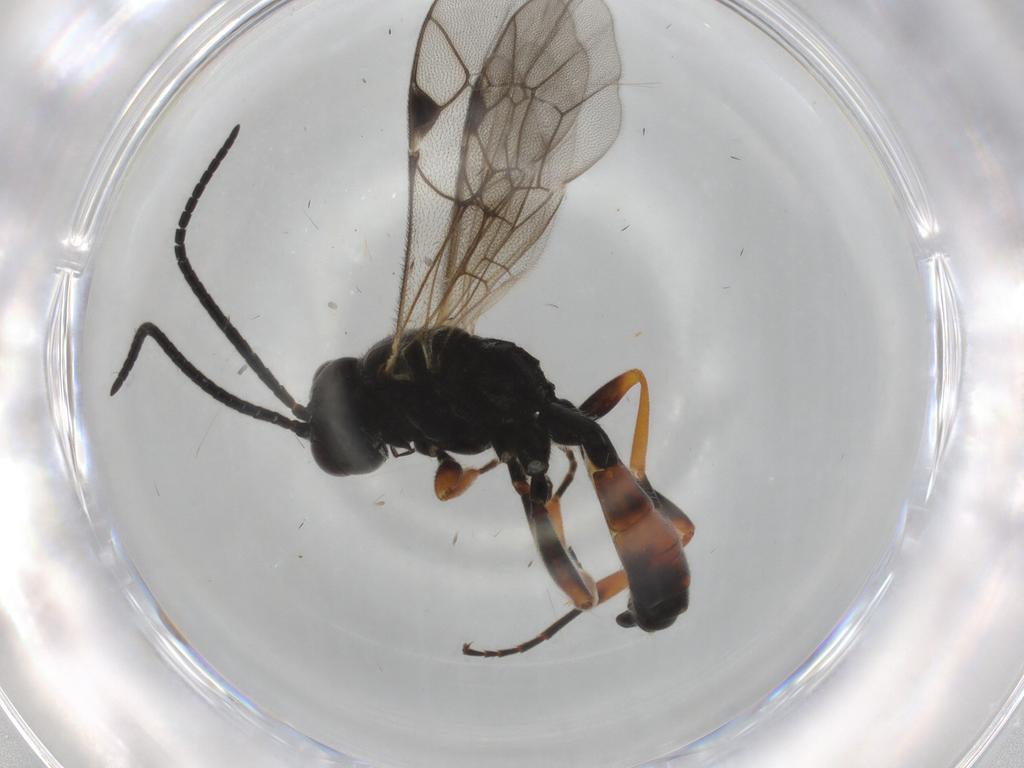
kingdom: Animalia
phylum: Arthropoda
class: Insecta
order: Hymenoptera
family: Ichneumonidae
